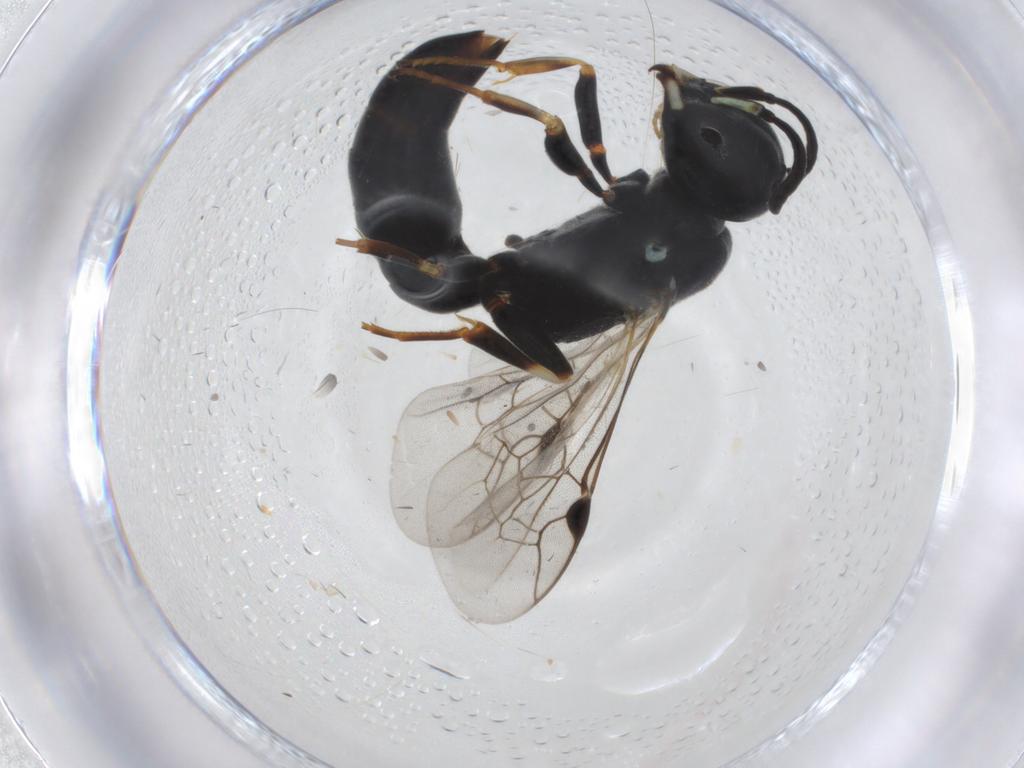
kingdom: Animalia
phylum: Arthropoda
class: Insecta
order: Hymenoptera
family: Pemphredonidae
